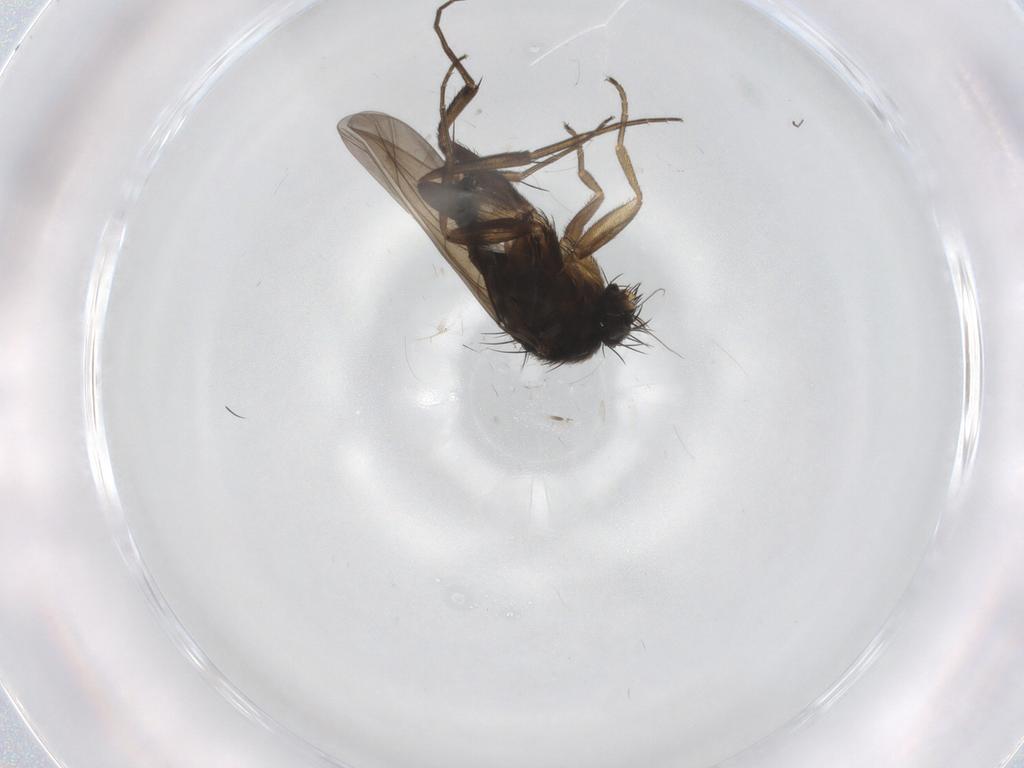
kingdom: Animalia
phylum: Arthropoda
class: Insecta
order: Diptera
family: Phoridae
